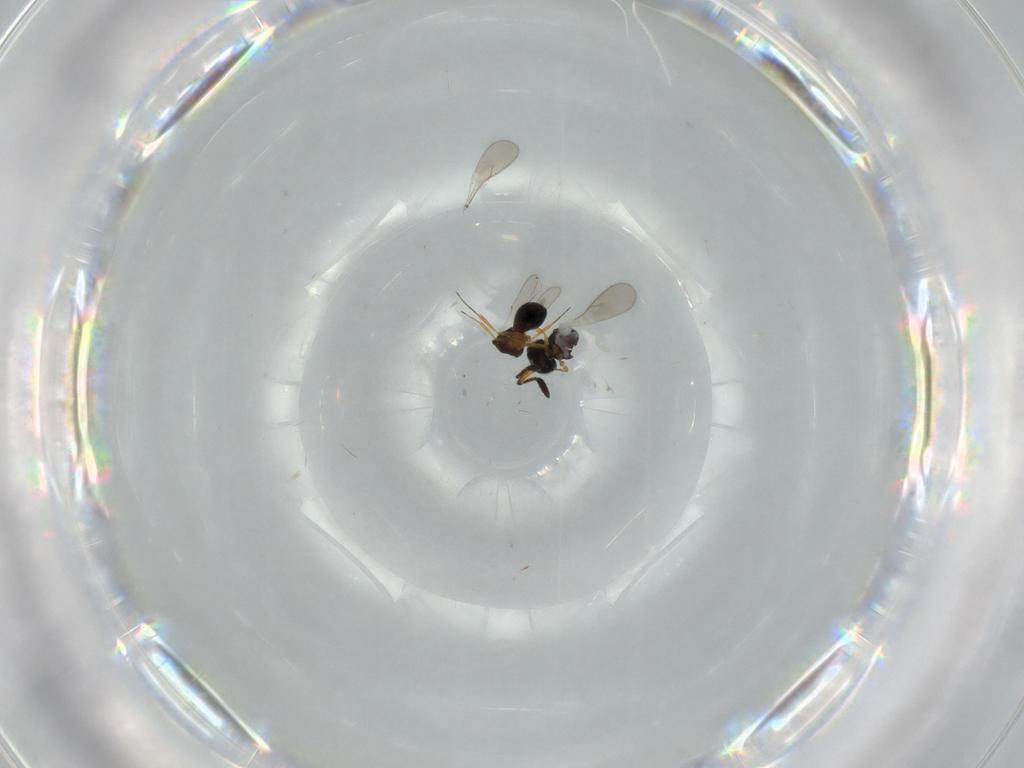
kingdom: Animalia
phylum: Arthropoda
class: Insecta
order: Hymenoptera
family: Scelionidae
